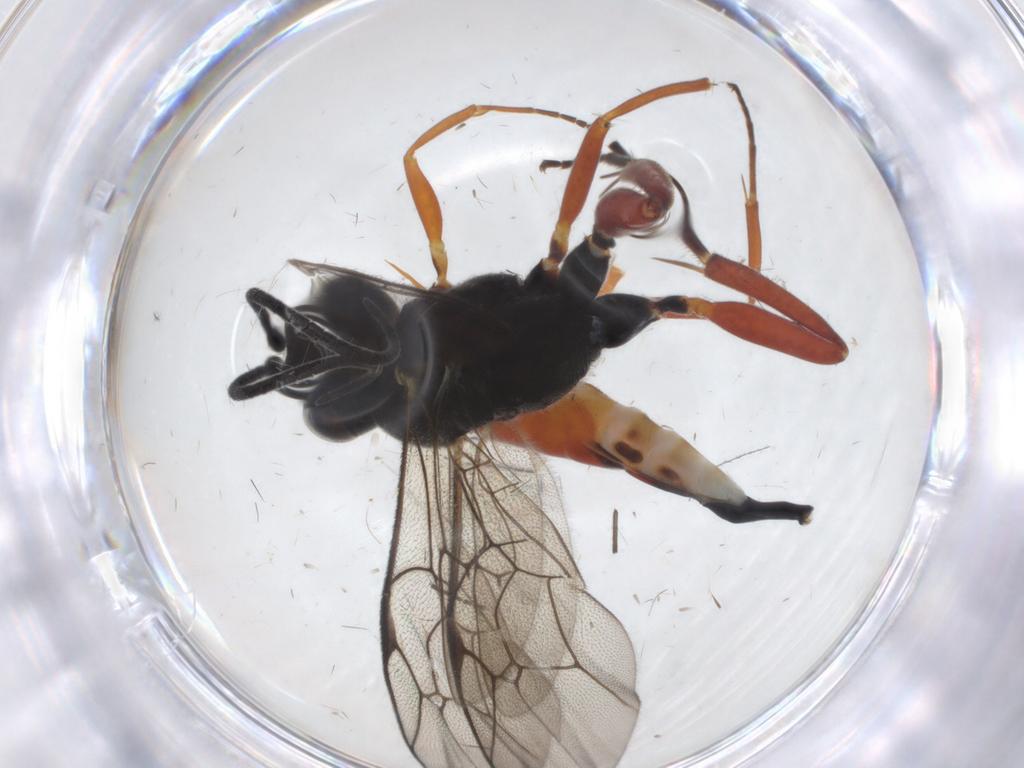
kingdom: Animalia
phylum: Arthropoda
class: Insecta
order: Hymenoptera
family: Ichneumonidae
